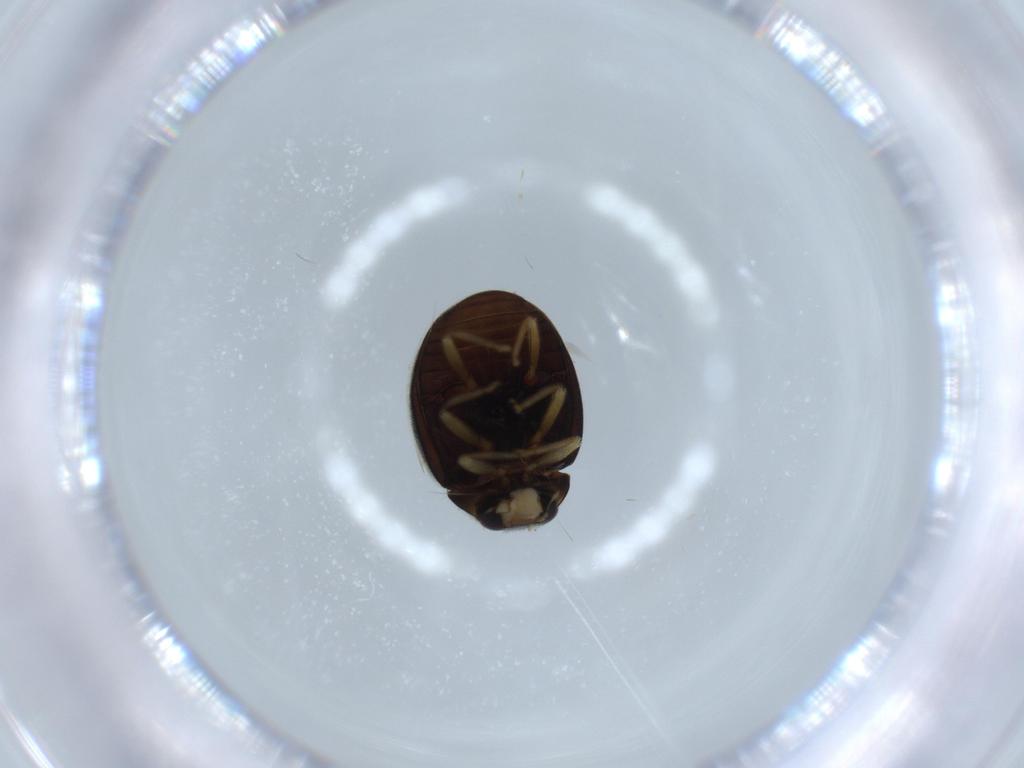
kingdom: Animalia
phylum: Arthropoda
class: Insecta
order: Coleoptera
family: Coccinellidae
